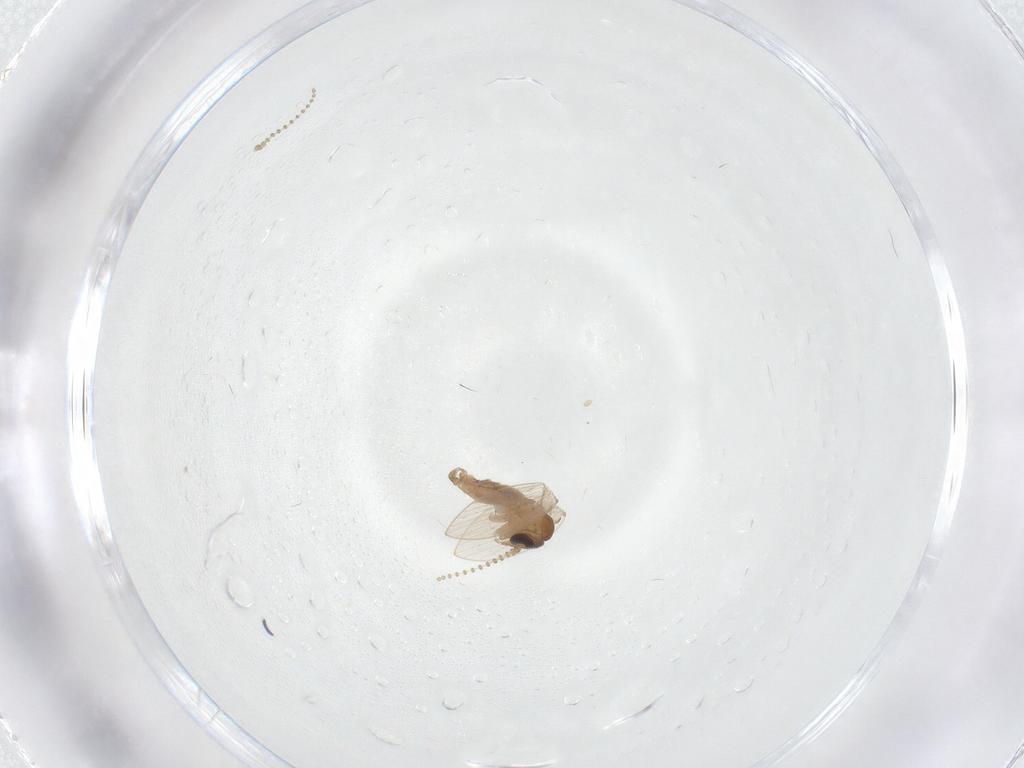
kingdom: Animalia
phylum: Arthropoda
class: Insecta
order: Diptera
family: Psychodidae
